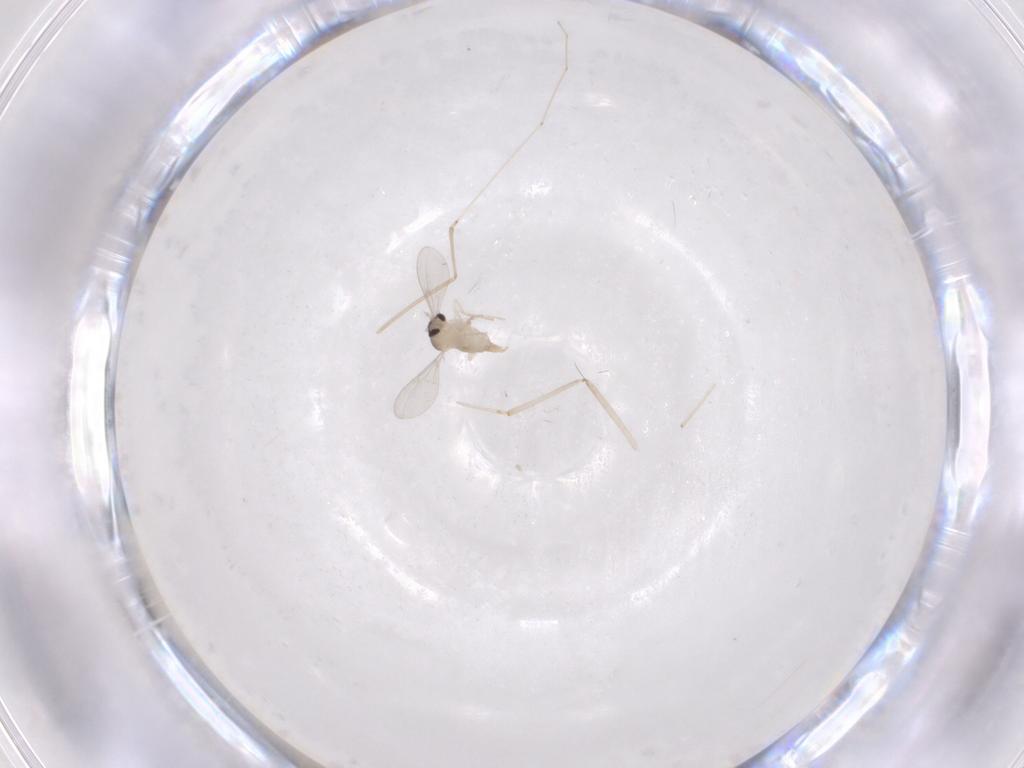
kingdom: Animalia
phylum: Arthropoda
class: Insecta
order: Diptera
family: Cecidomyiidae
